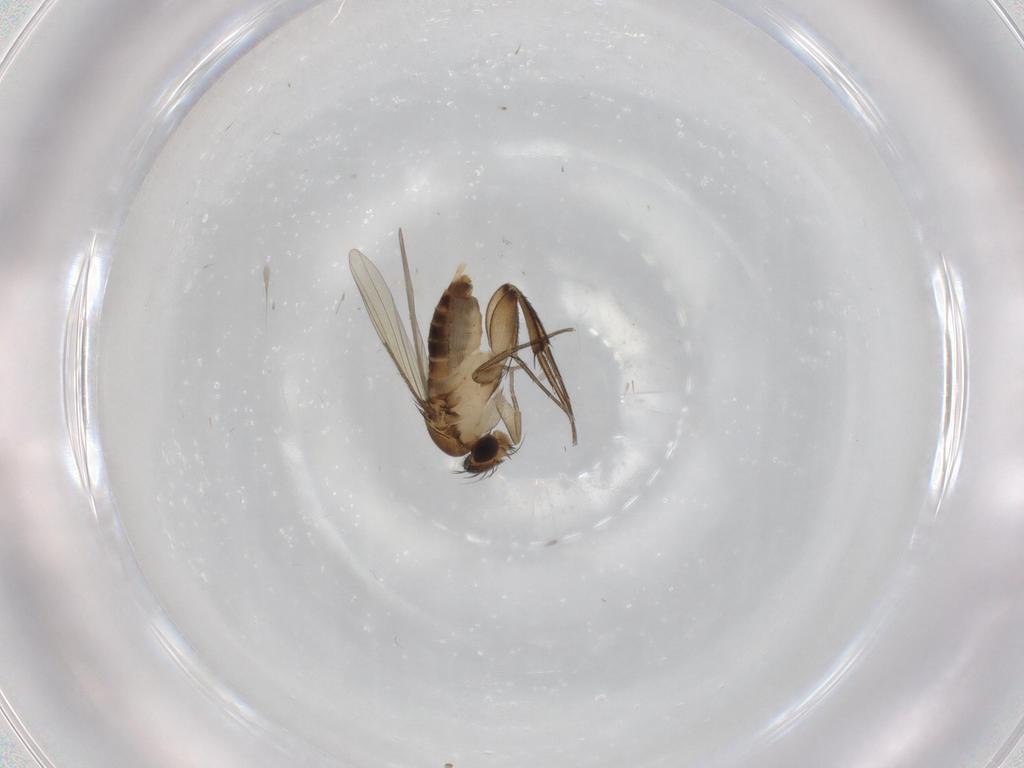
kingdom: Animalia
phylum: Arthropoda
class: Insecta
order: Diptera
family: Phoridae
